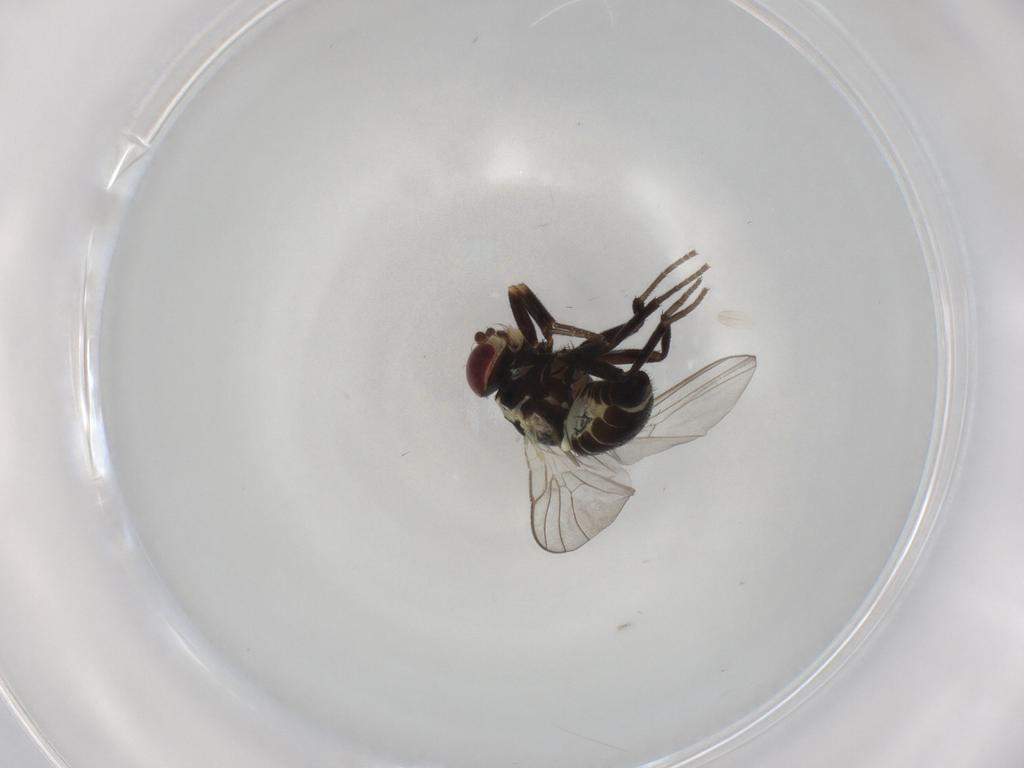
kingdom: Animalia
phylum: Arthropoda
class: Insecta
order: Diptera
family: Agromyzidae
